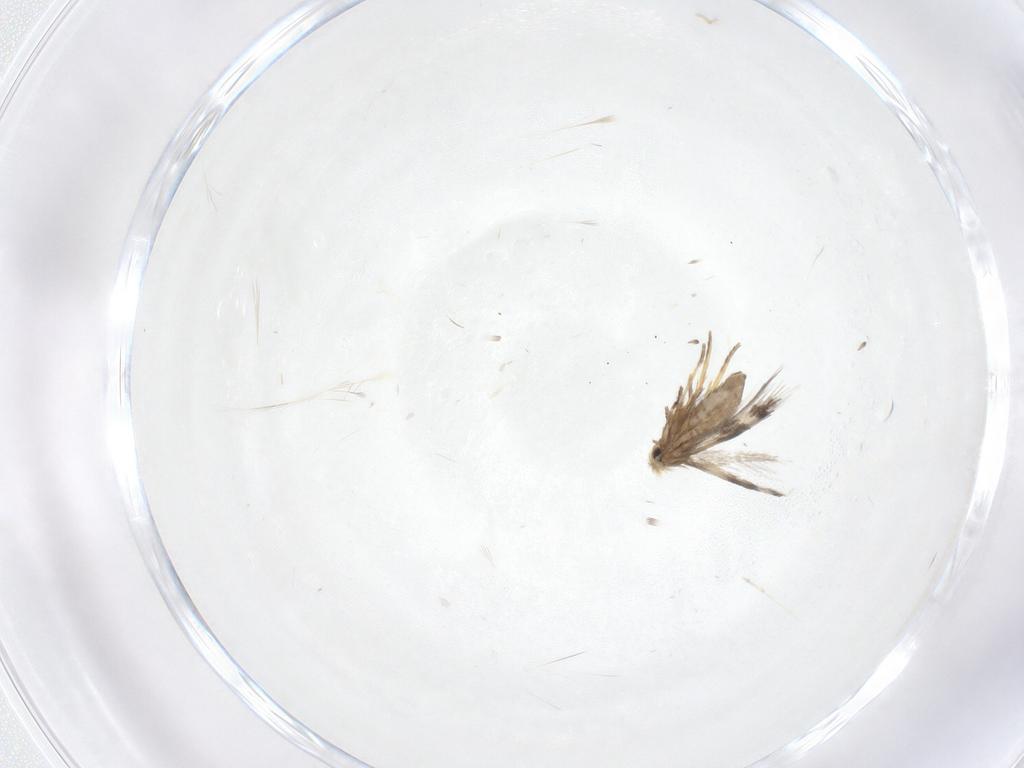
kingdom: Animalia
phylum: Arthropoda
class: Insecta
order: Lepidoptera
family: Nepticulidae
